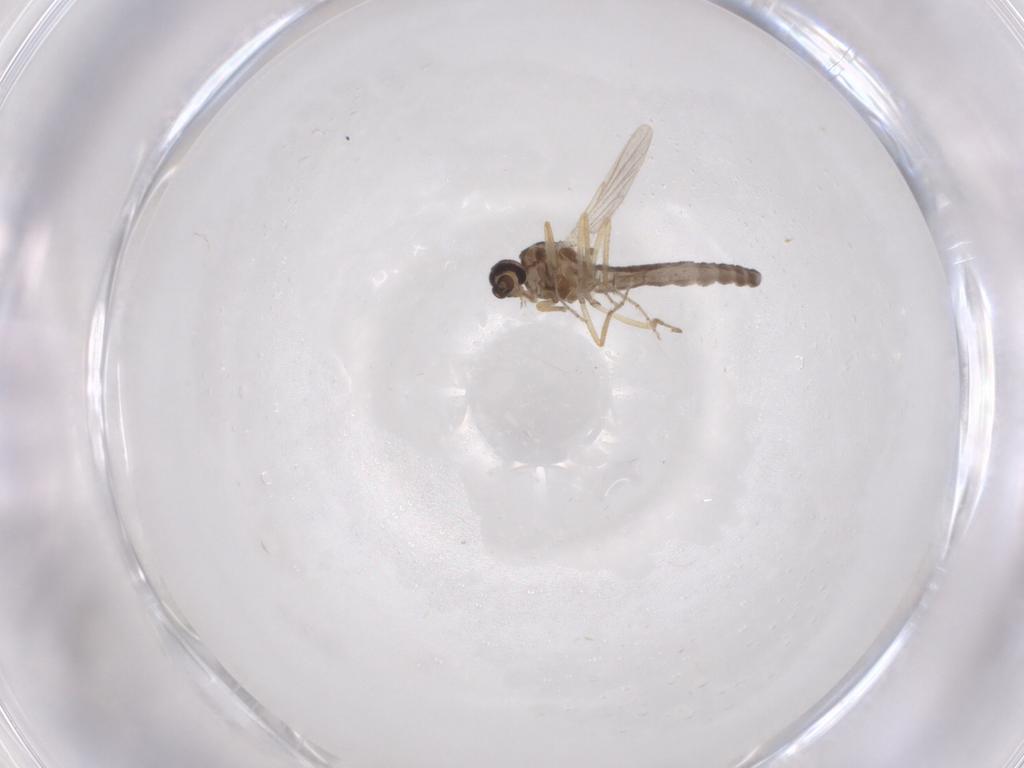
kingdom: Animalia
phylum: Arthropoda
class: Insecta
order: Diptera
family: Ceratopogonidae
